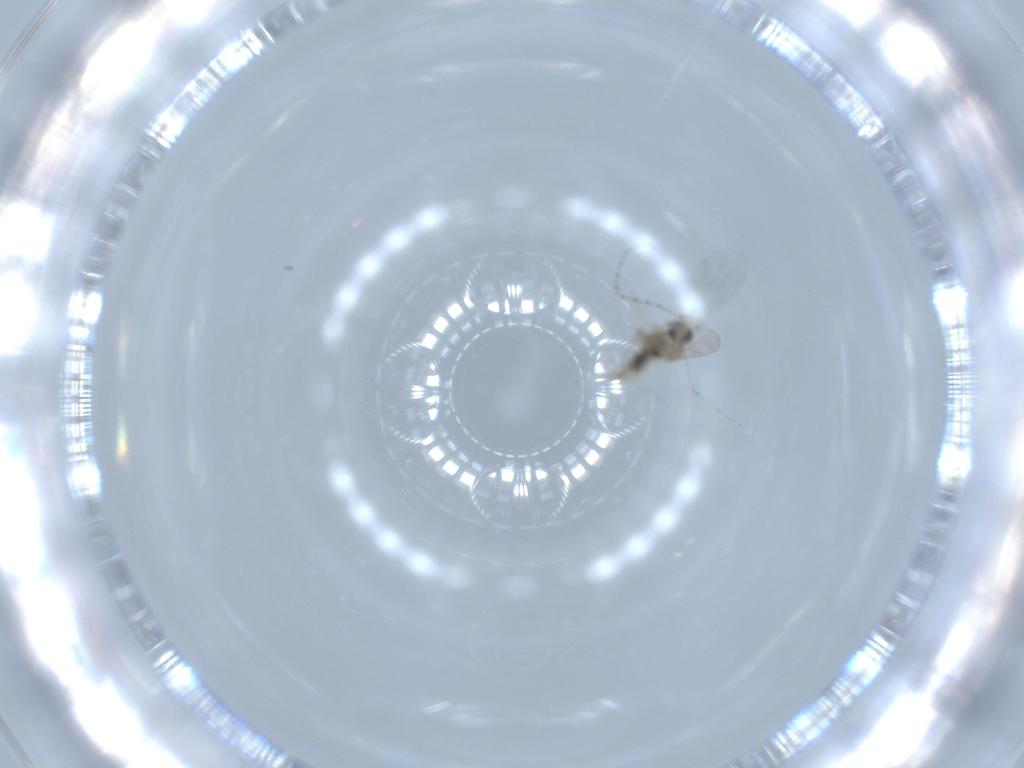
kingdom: Animalia
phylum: Arthropoda
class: Insecta
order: Diptera
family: Cecidomyiidae
